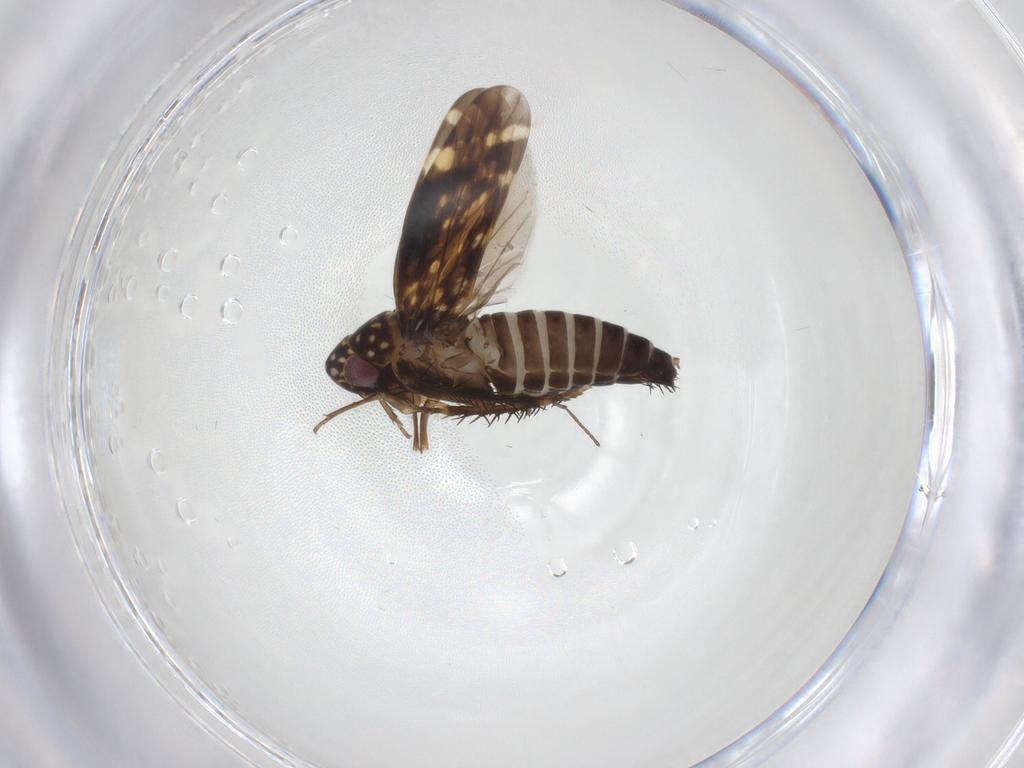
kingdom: Animalia
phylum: Arthropoda
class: Insecta
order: Hemiptera
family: Cicadellidae
